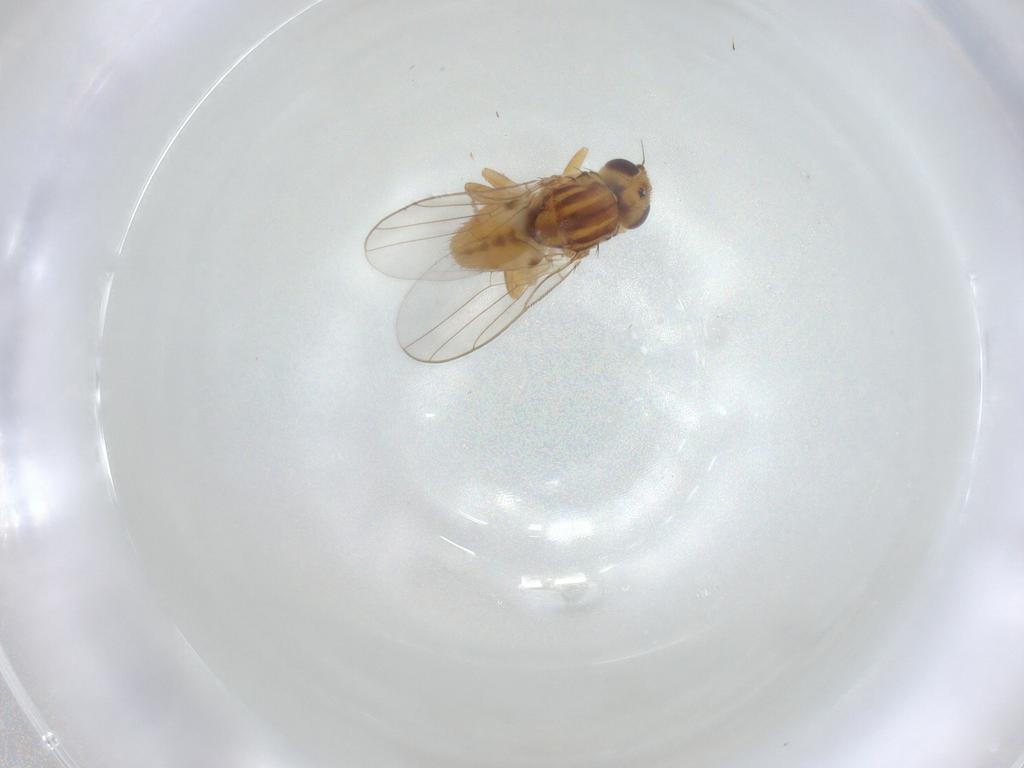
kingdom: Animalia
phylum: Arthropoda
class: Insecta
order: Diptera
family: Chloropidae
